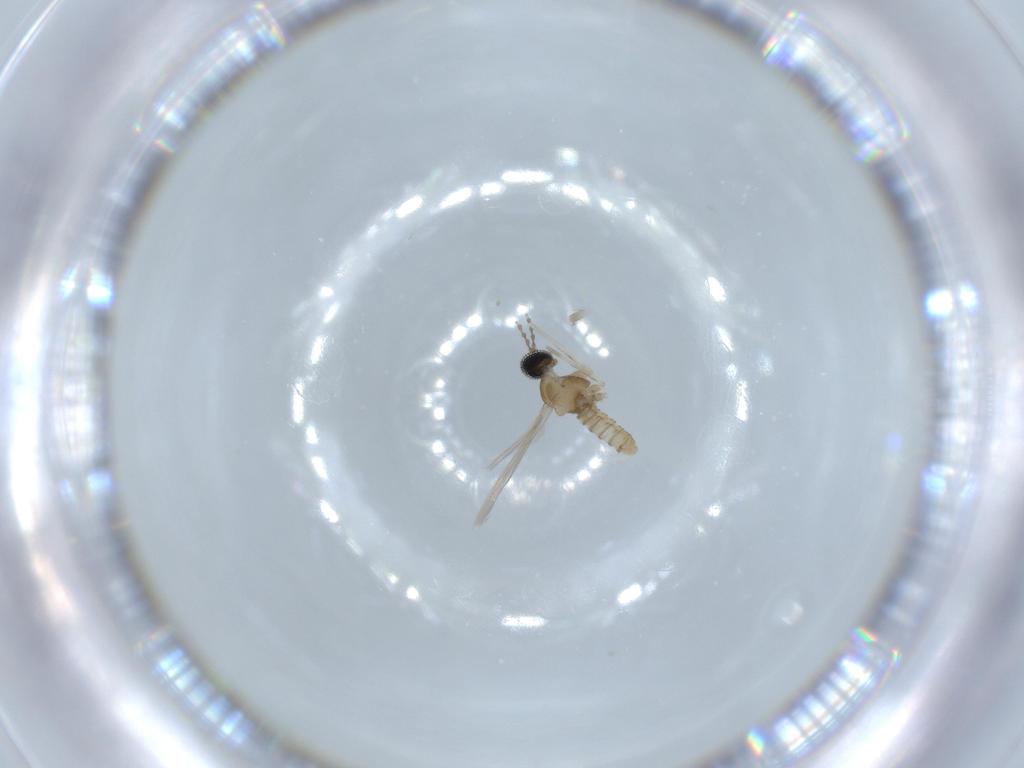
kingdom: Animalia
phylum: Arthropoda
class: Insecta
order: Diptera
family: Cecidomyiidae
